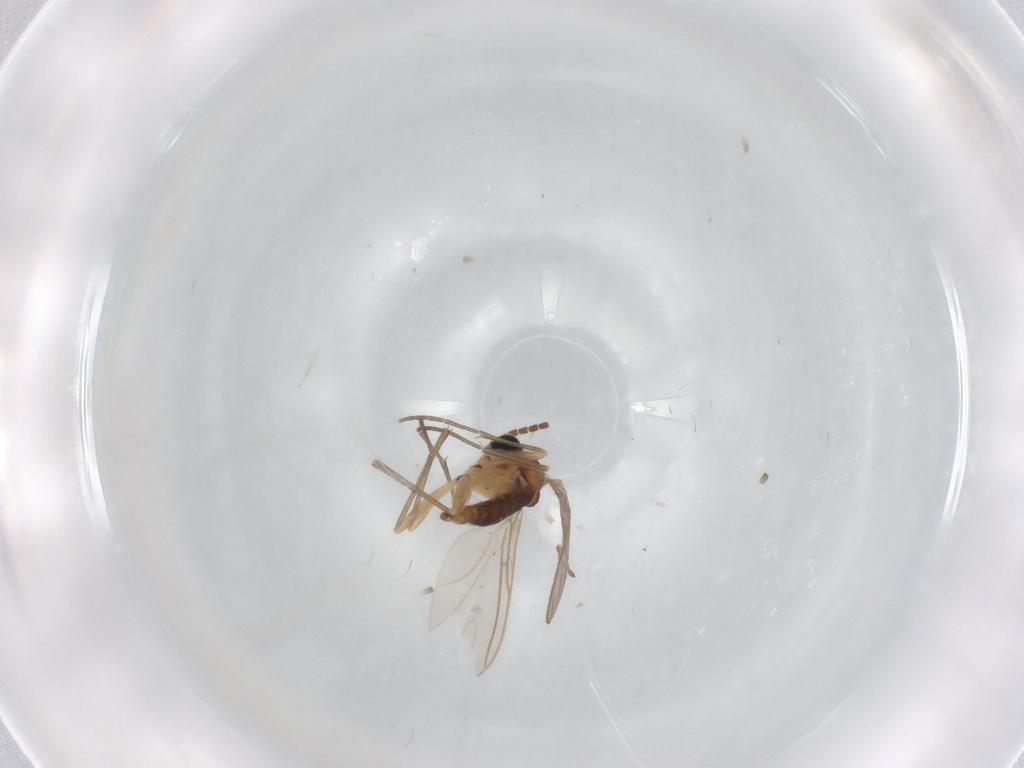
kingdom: Animalia
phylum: Arthropoda
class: Insecta
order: Diptera
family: Sciaridae
